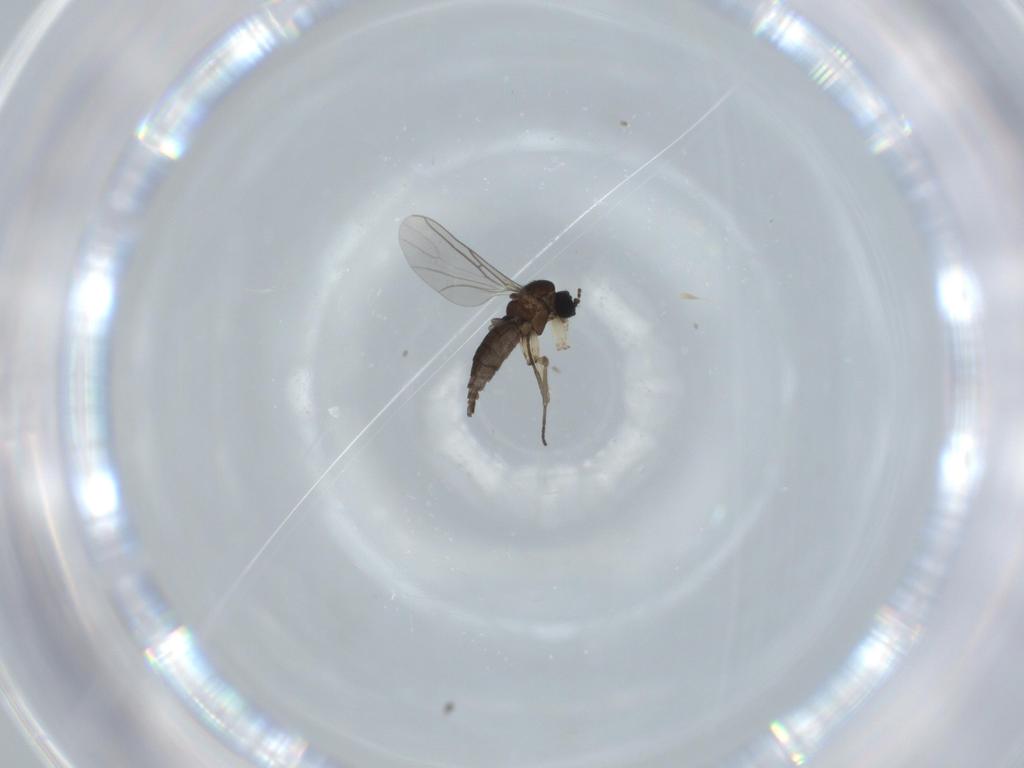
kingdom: Animalia
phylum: Arthropoda
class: Insecta
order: Diptera
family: Sciaridae
